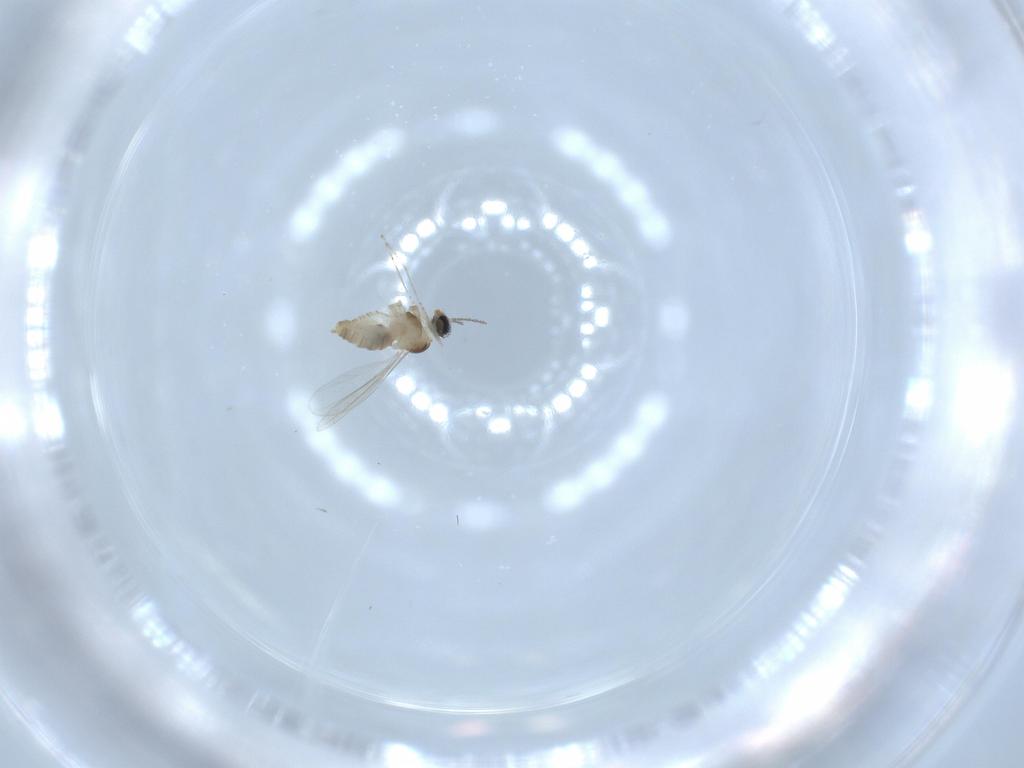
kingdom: Animalia
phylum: Arthropoda
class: Insecta
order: Diptera
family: Cecidomyiidae
